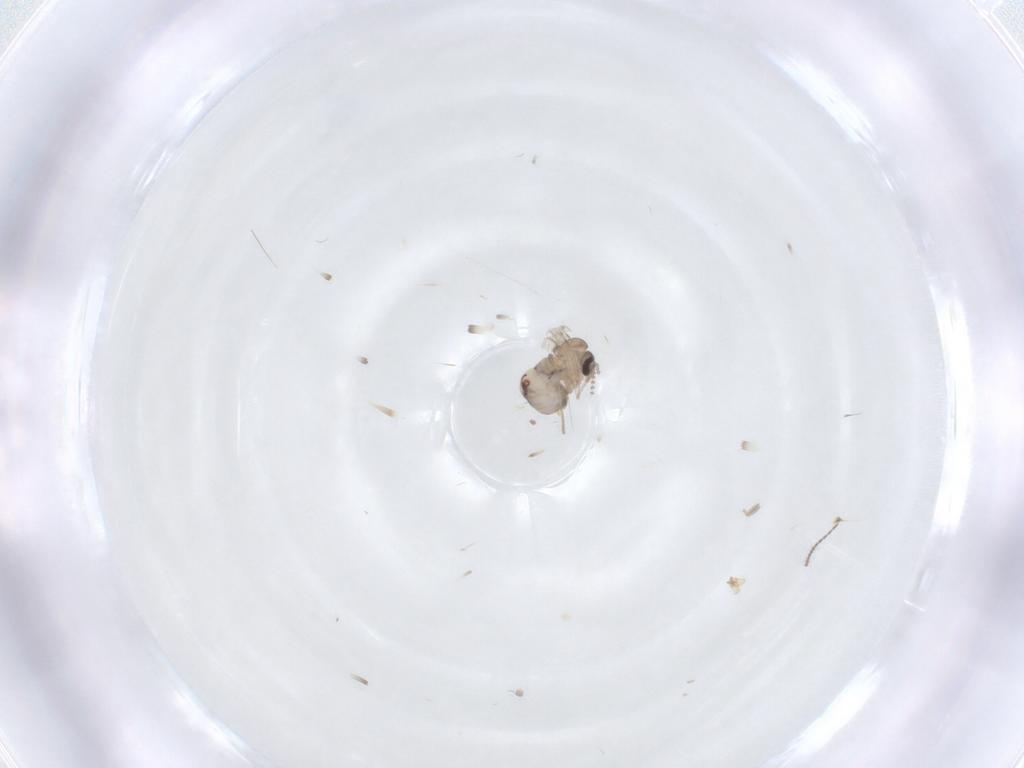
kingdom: Animalia
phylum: Arthropoda
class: Insecta
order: Diptera
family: Psychodidae
